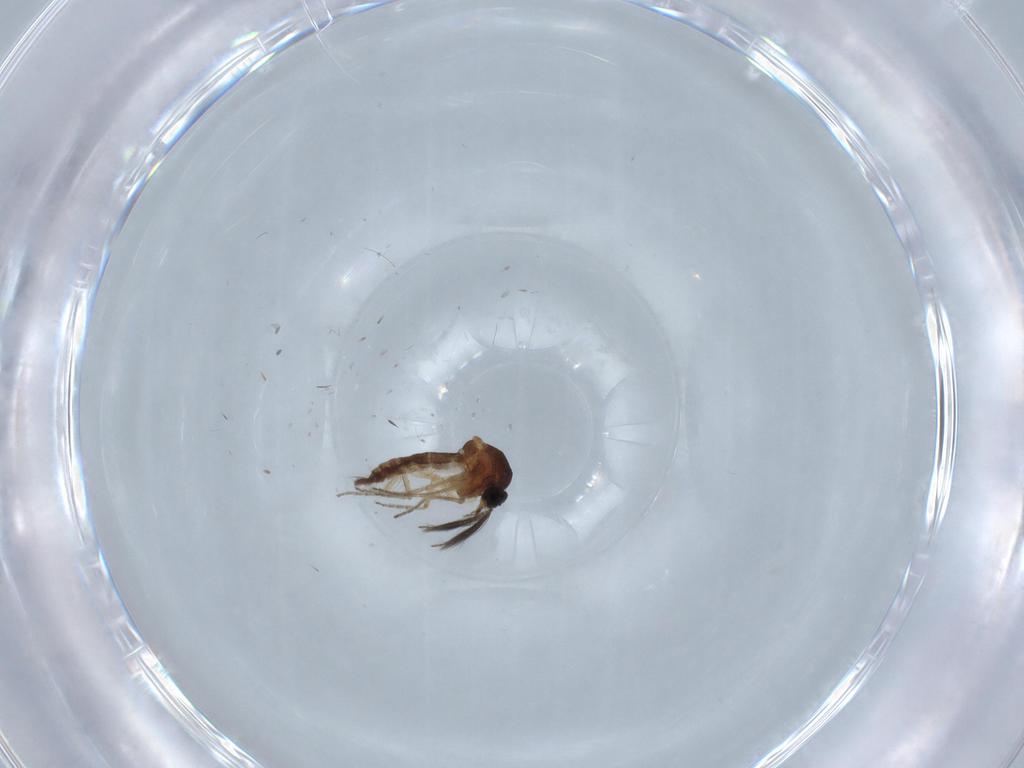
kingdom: Animalia
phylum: Arthropoda
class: Insecta
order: Diptera
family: Ceratopogonidae
